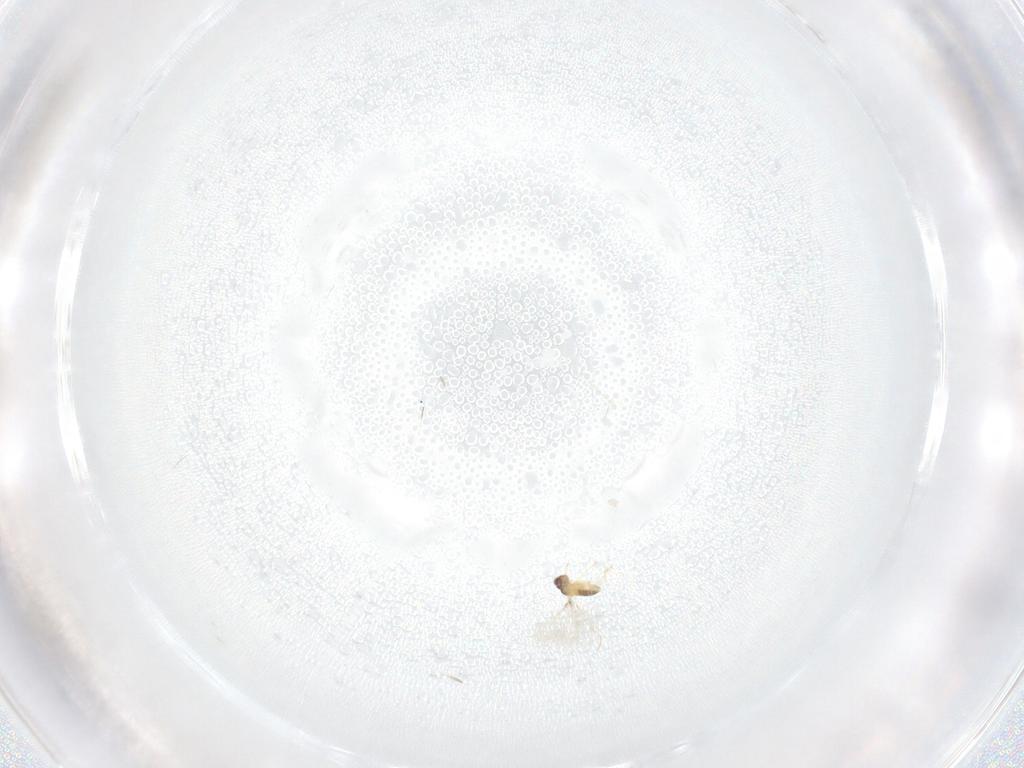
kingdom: Animalia
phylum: Arthropoda
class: Insecta
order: Hymenoptera
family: Mymaridae
